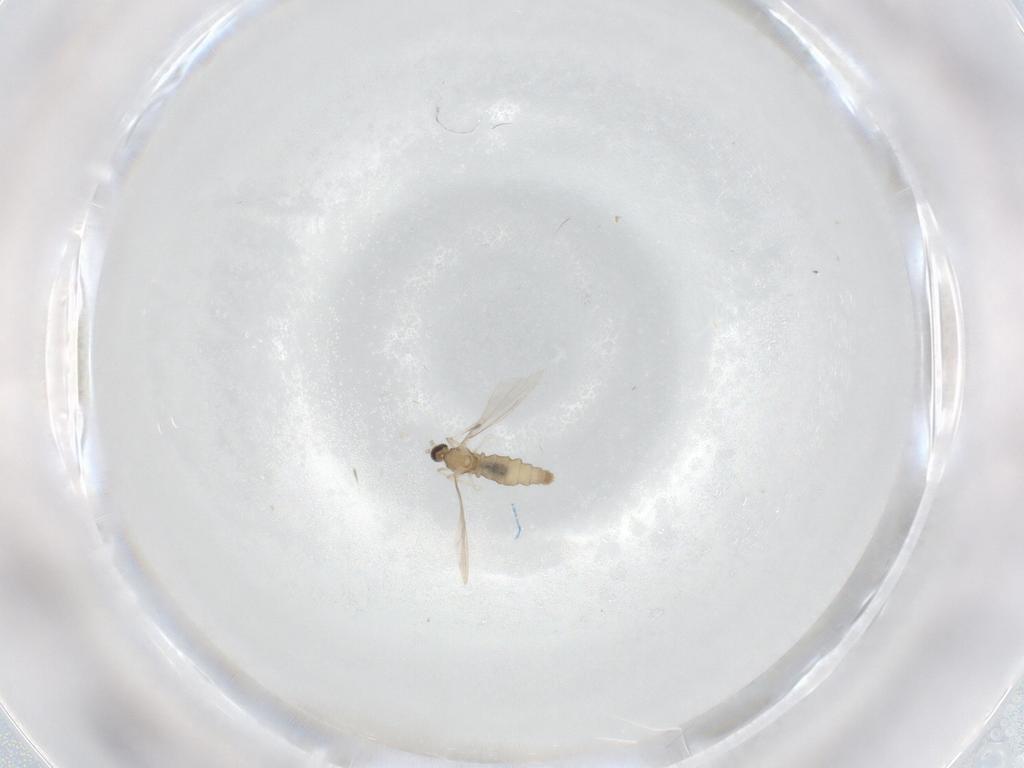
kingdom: Animalia
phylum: Arthropoda
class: Insecta
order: Diptera
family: Cecidomyiidae
